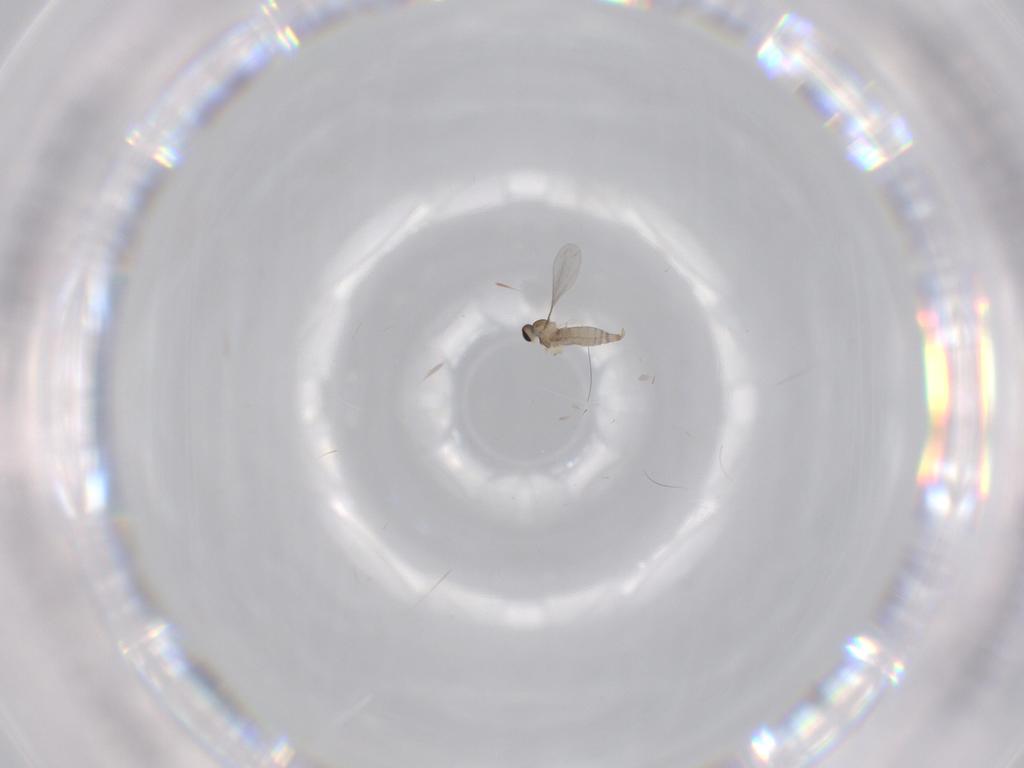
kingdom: Animalia
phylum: Arthropoda
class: Insecta
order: Diptera
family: Cecidomyiidae
